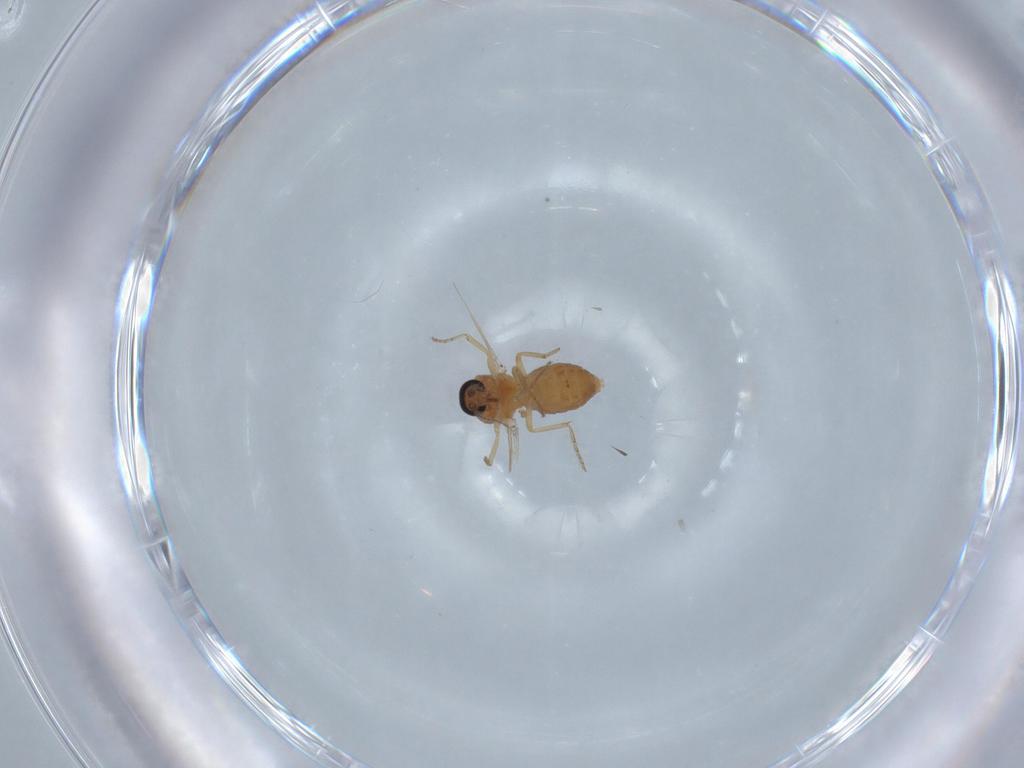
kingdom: Animalia
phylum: Arthropoda
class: Insecta
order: Diptera
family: Ceratopogonidae
